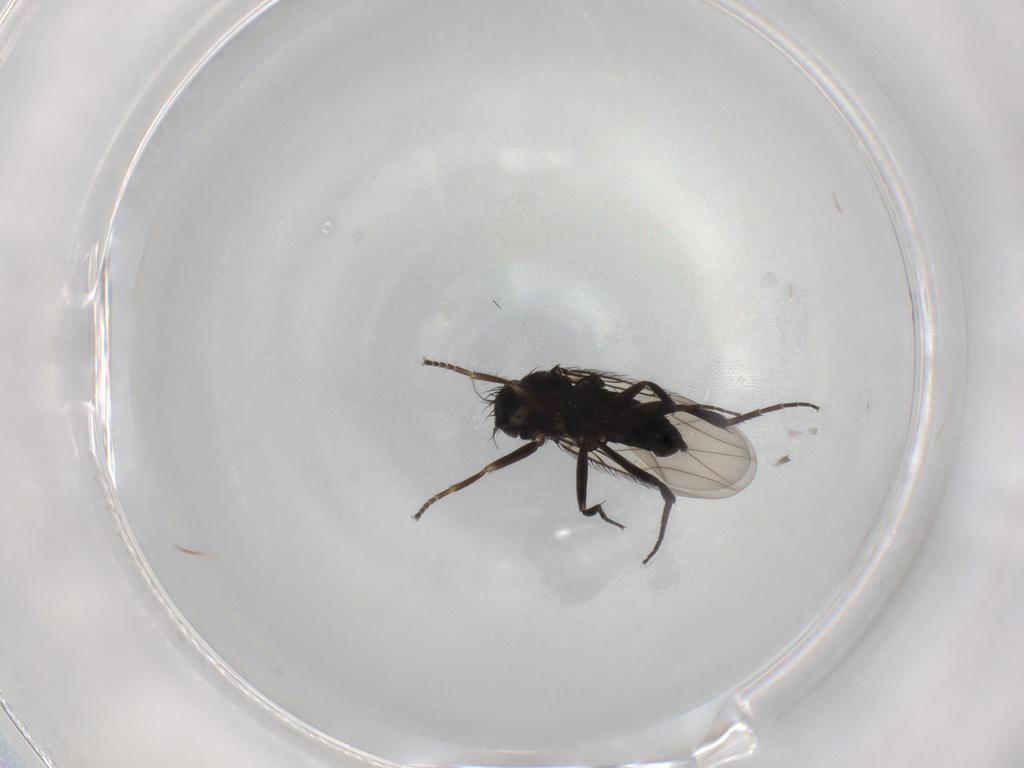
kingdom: Animalia
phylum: Arthropoda
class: Insecta
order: Diptera
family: Phoridae
